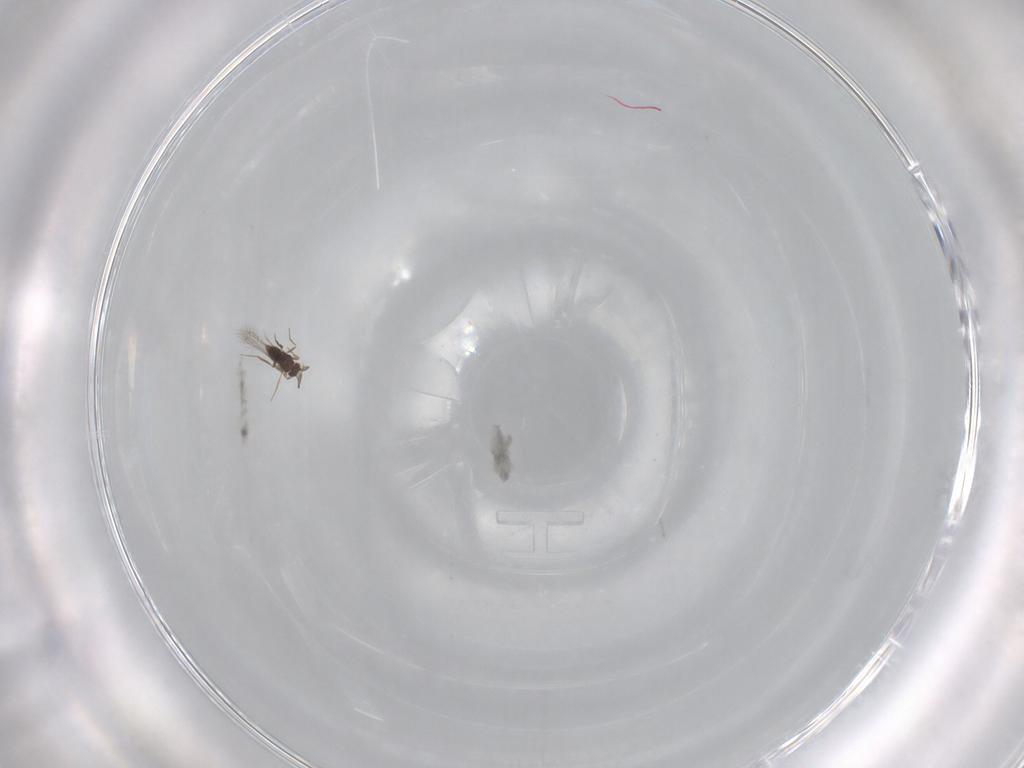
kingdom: Animalia
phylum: Arthropoda
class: Insecta
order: Hymenoptera
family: Mymaridae
